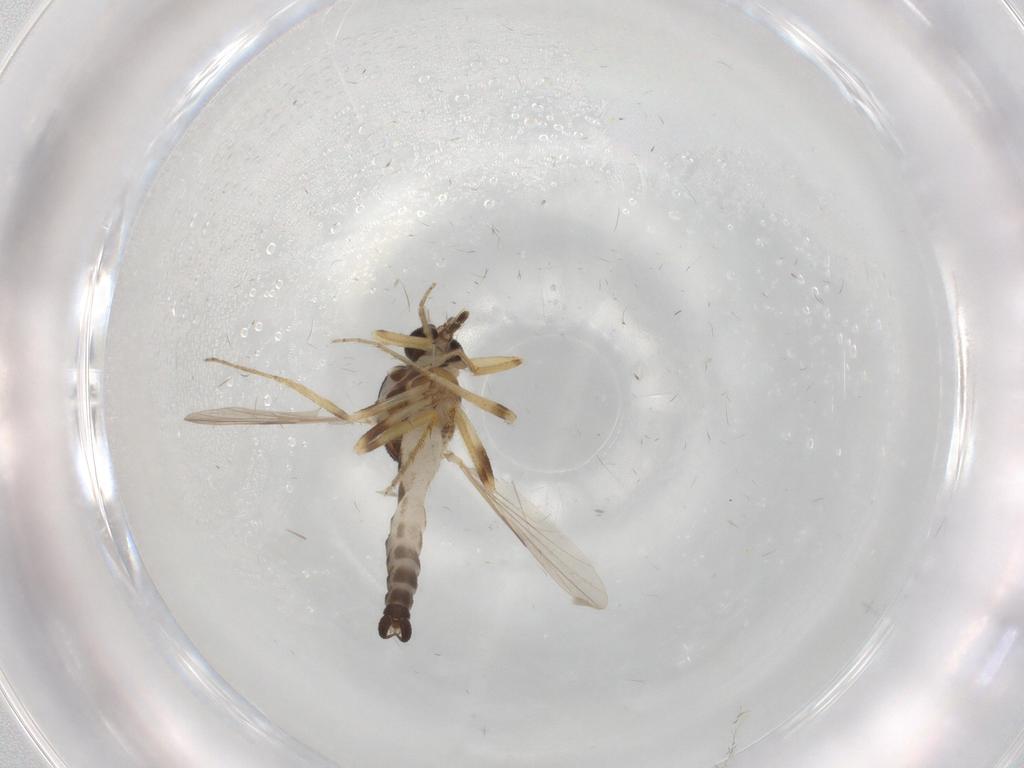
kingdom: Animalia
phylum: Arthropoda
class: Insecta
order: Diptera
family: Ceratopogonidae
